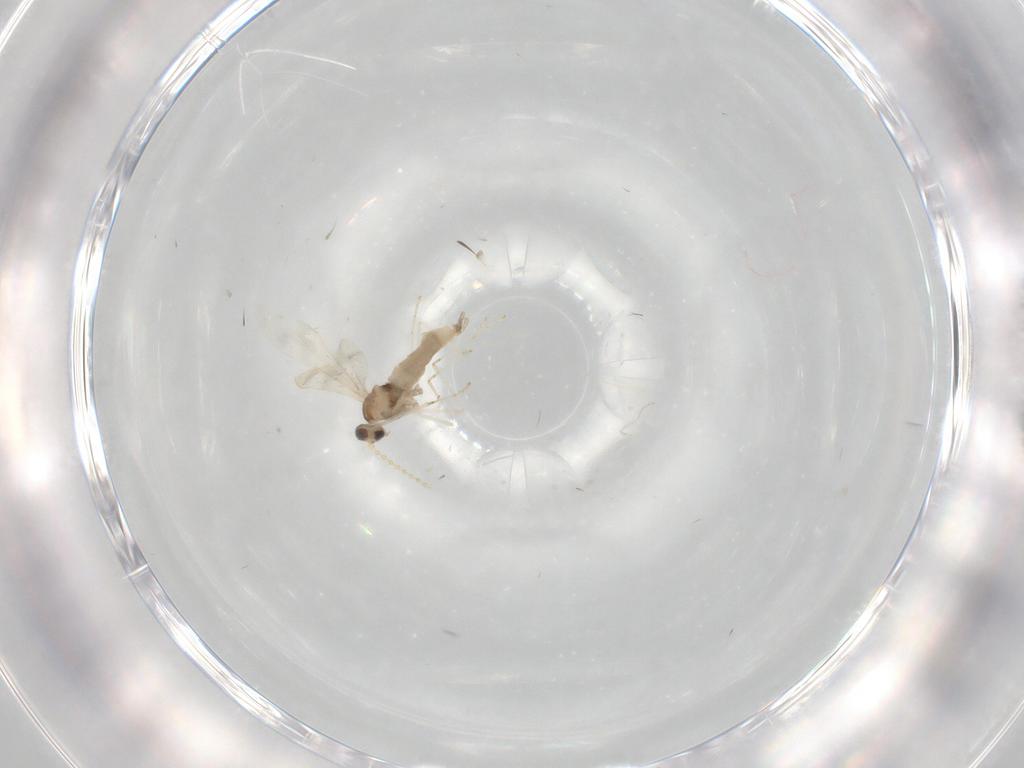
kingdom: Animalia
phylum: Arthropoda
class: Insecta
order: Diptera
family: Cecidomyiidae
